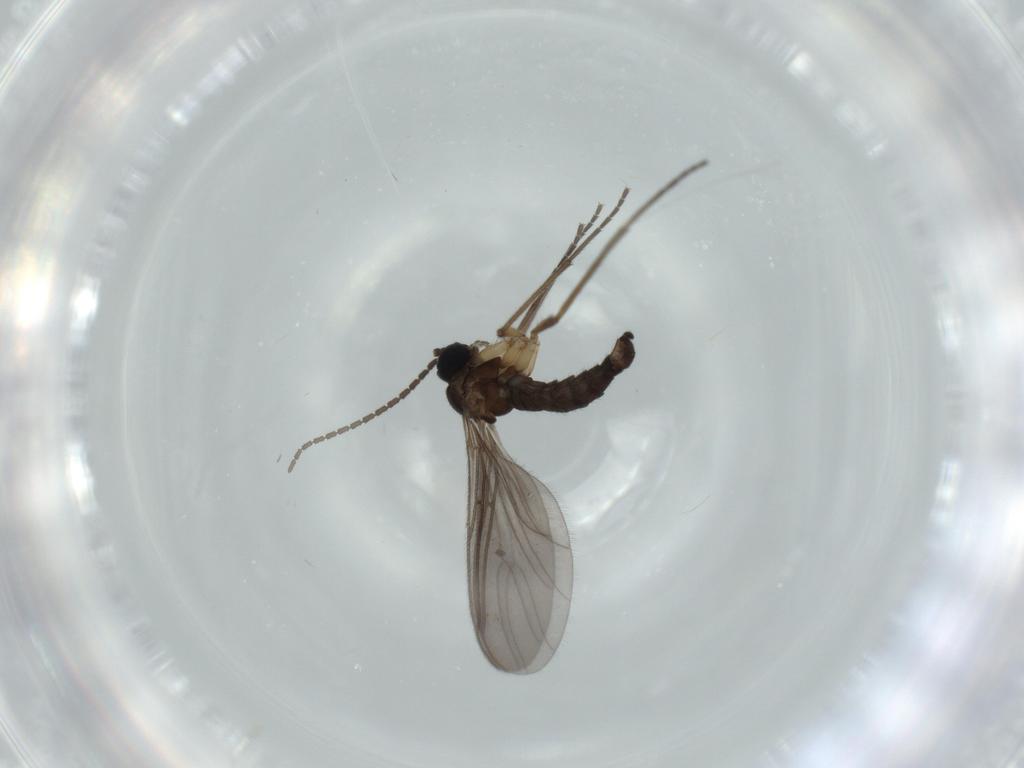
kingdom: Animalia
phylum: Arthropoda
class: Insecta
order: Diptera
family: Sciaridae
